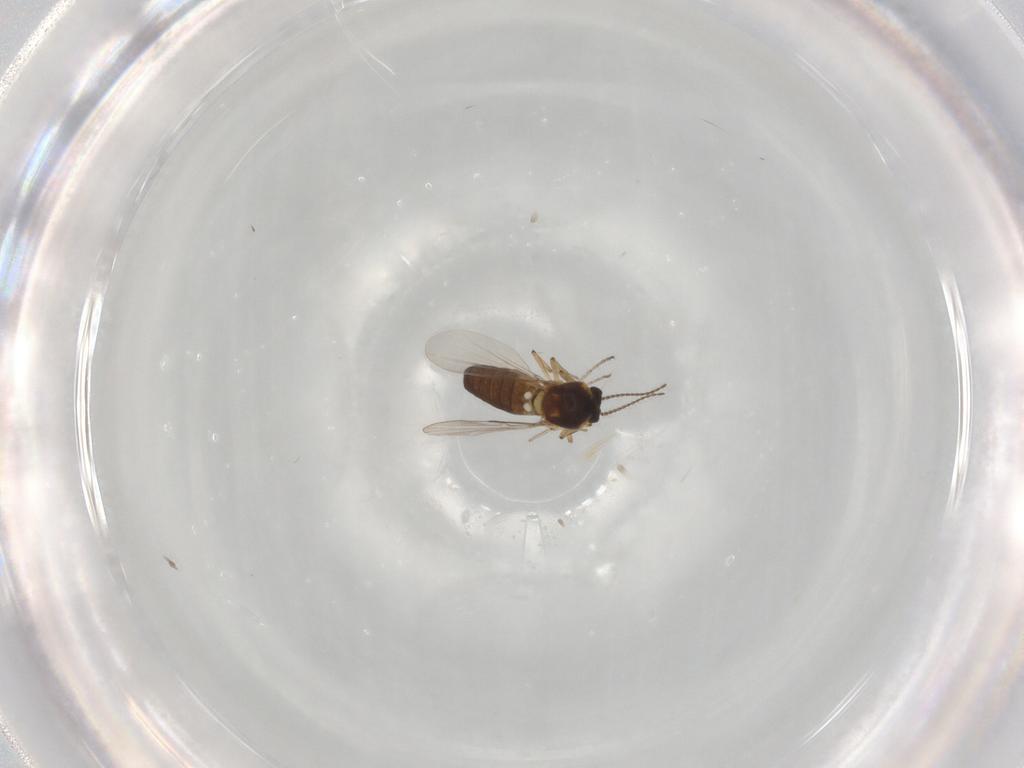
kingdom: Animalia
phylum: Arthropoda
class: Insecta
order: Diptera
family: Ceratopogonidae
